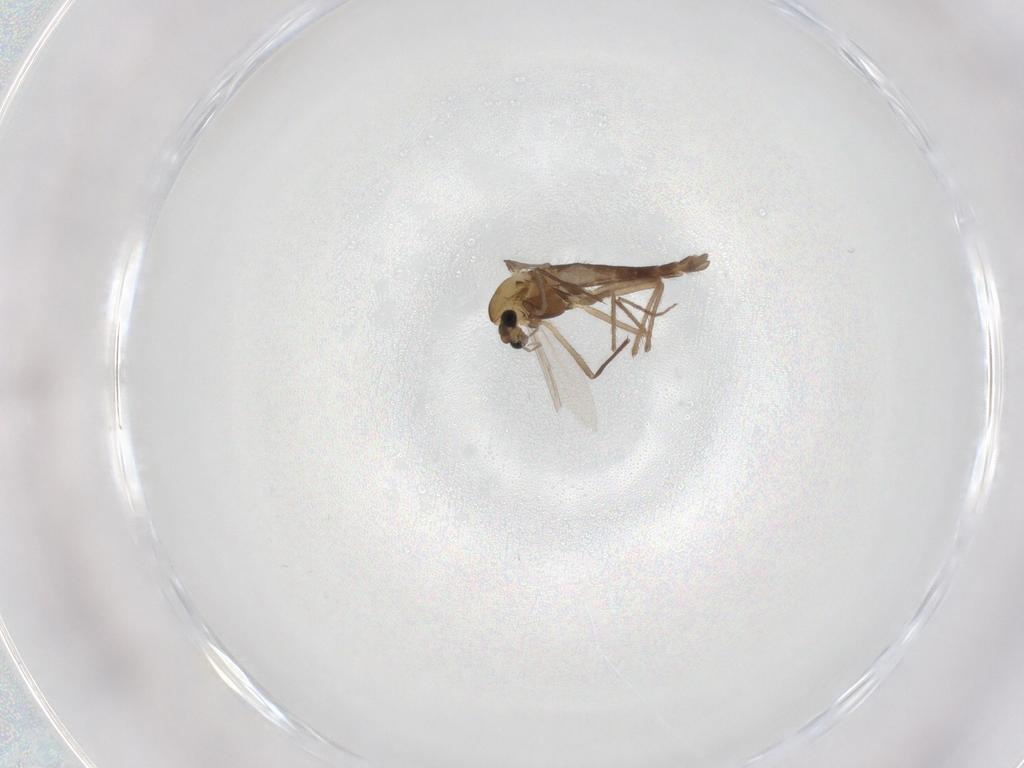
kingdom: Animalia
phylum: Arthropoda
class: Insecta
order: Diptera
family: Chironomidae
